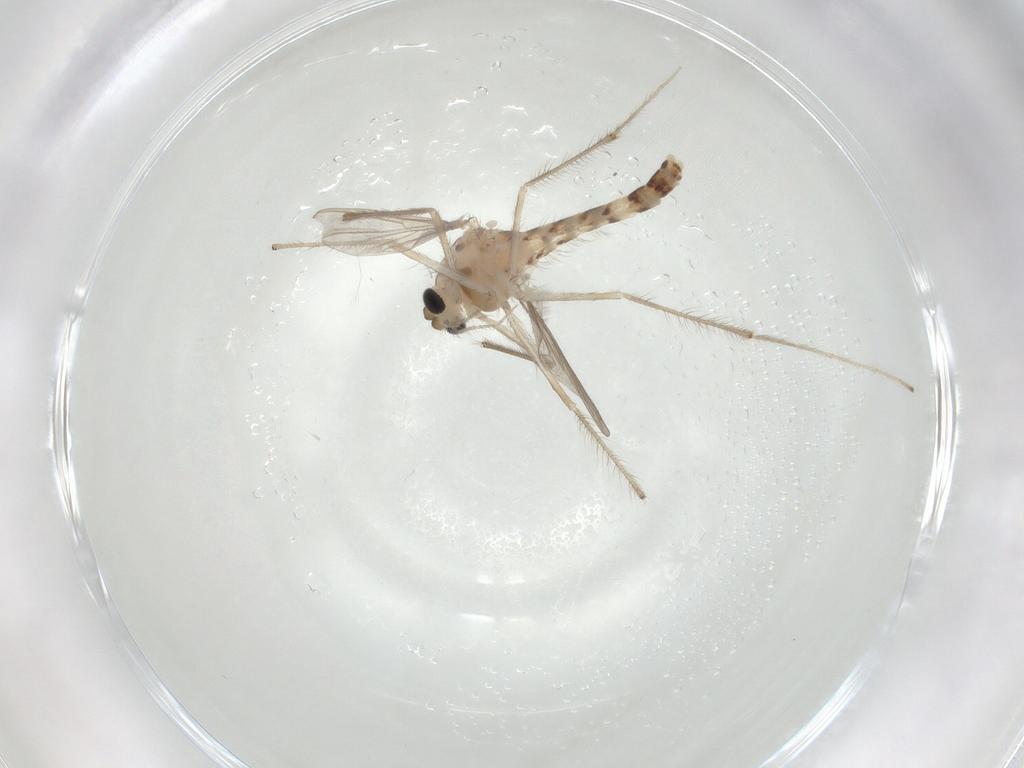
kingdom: Animalia
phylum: Arthropoda
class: Insecta
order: Diptera
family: Chironomidae
